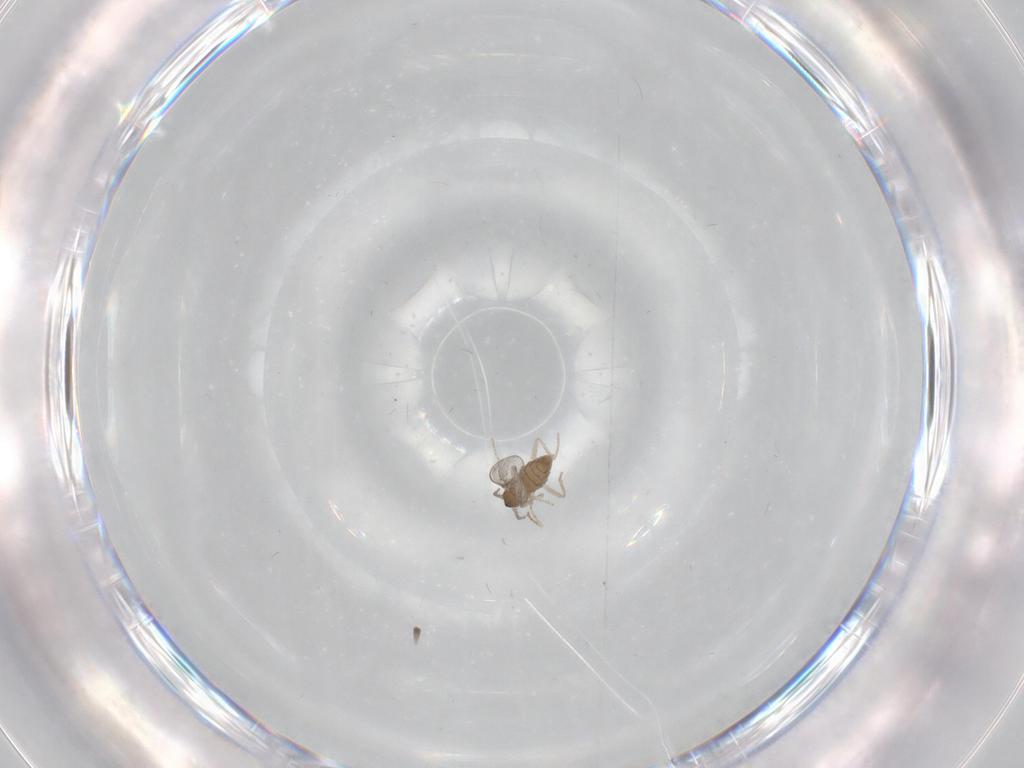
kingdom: Animalia
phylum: Arthropoda
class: Insecta
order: Diptera
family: Cecidomyiidae
